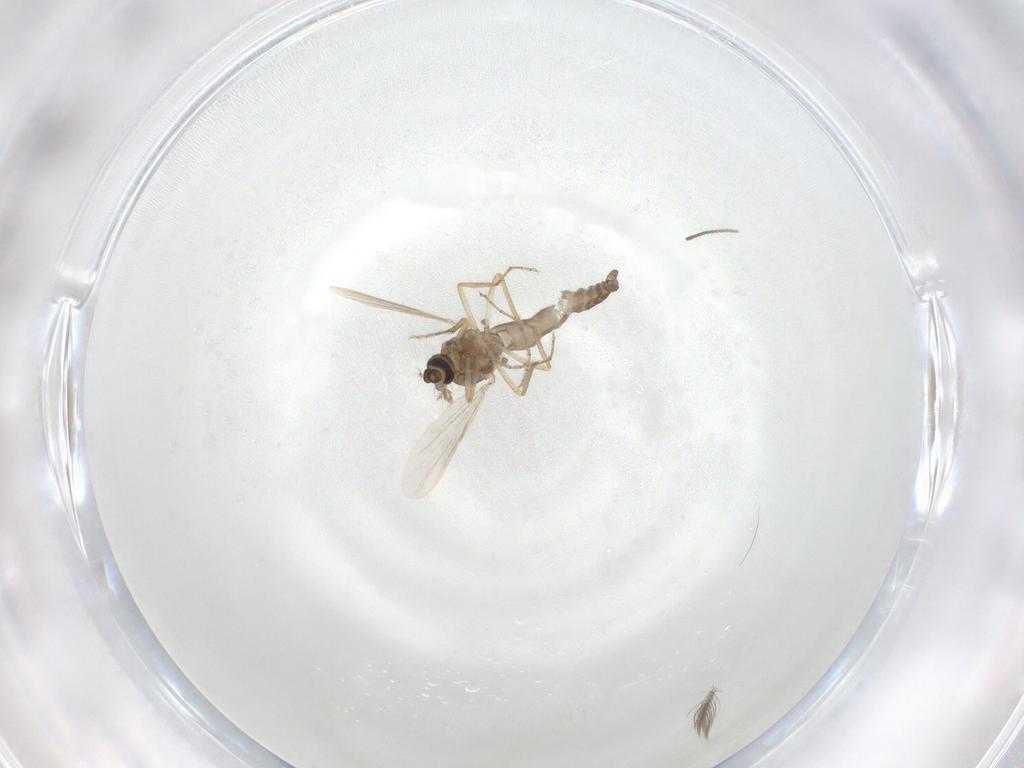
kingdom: Animalia
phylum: Arthropoda
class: Insecta
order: Diptera
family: Ceratopogonidae
